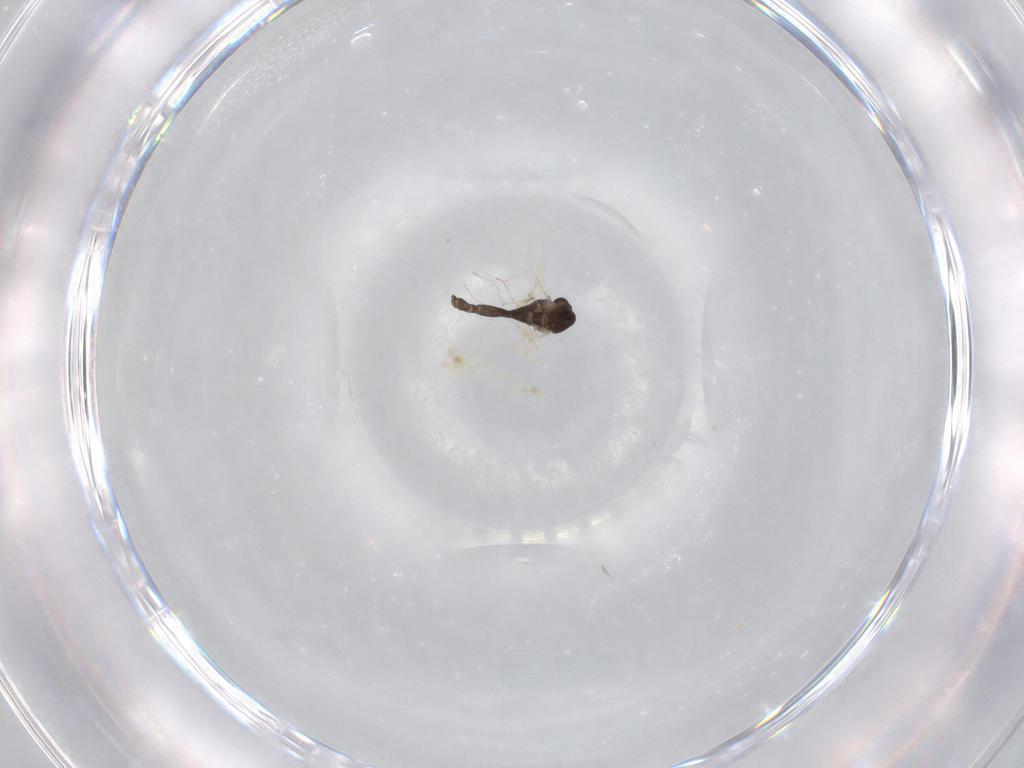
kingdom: Animalia
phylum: Arthropoda
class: Insecta
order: Diptera
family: Chironomidae
